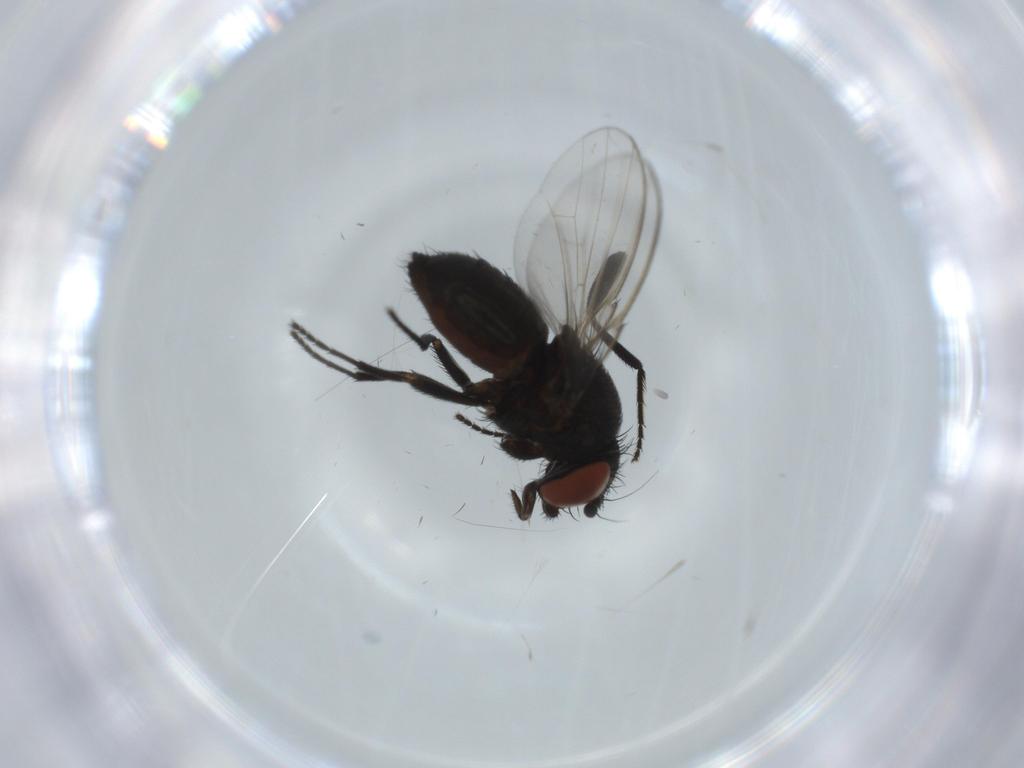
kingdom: Animalia
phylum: Arthropoda
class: Insecta
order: Diptera
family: Milichiidae
